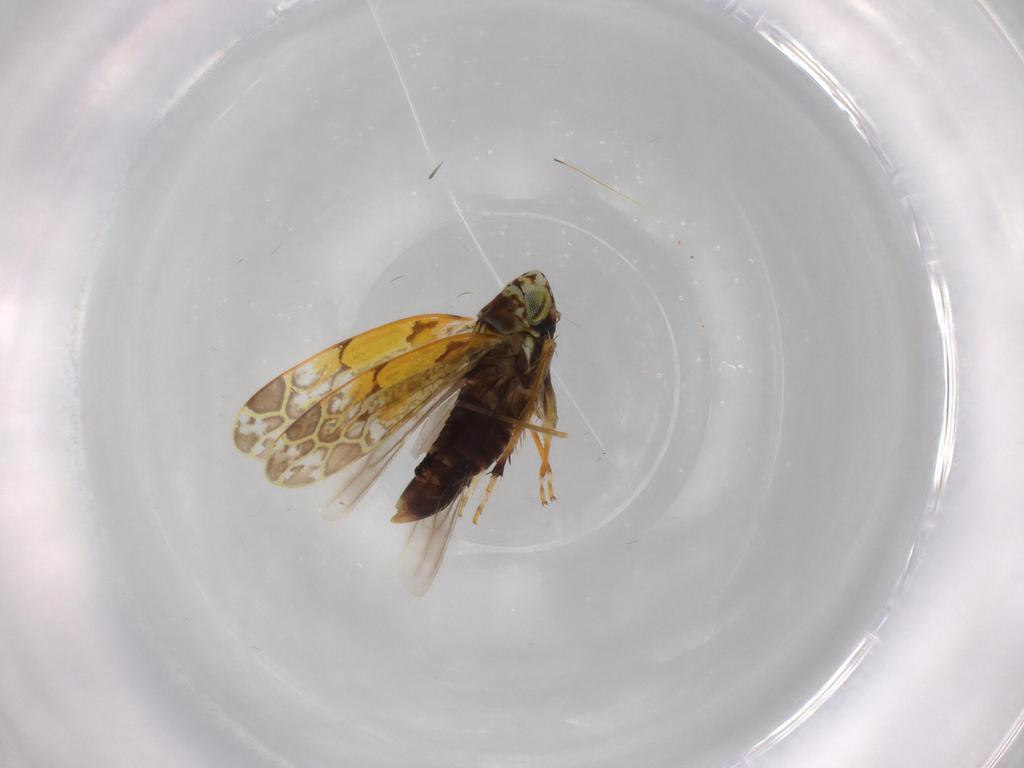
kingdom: Animalia
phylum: Arthropoda
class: Insecta
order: Hemiptera
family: Cicadellidae
